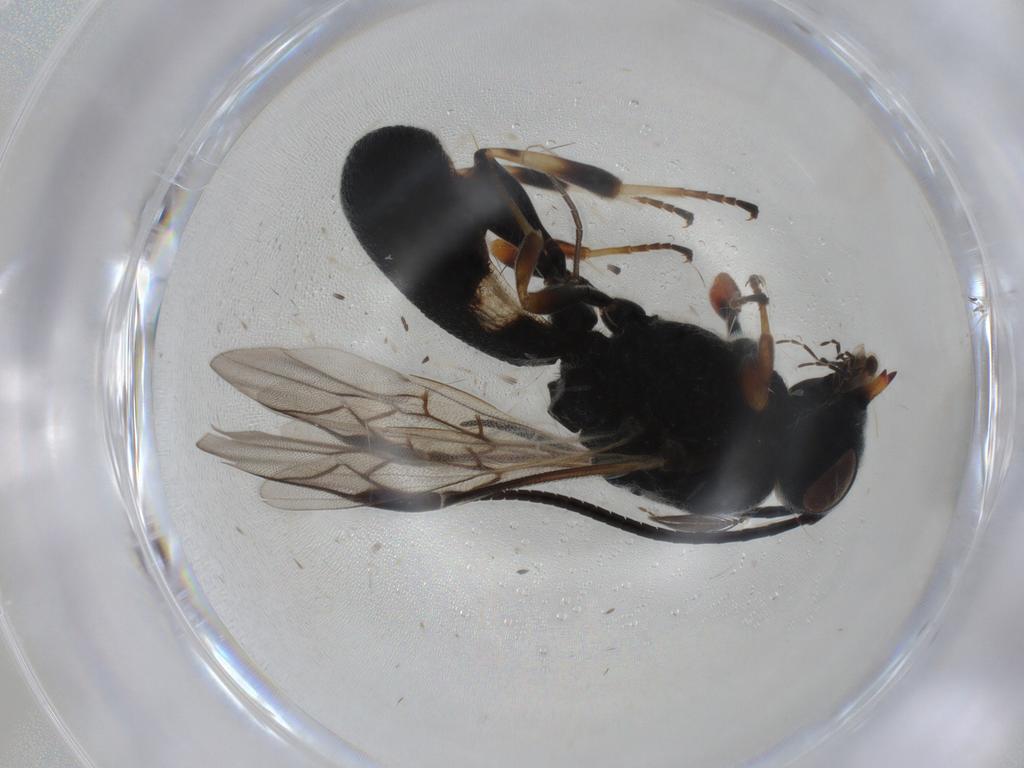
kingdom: Animalia
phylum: Arthropoda
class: Insecta
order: Hymenoptera
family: Braconidae
